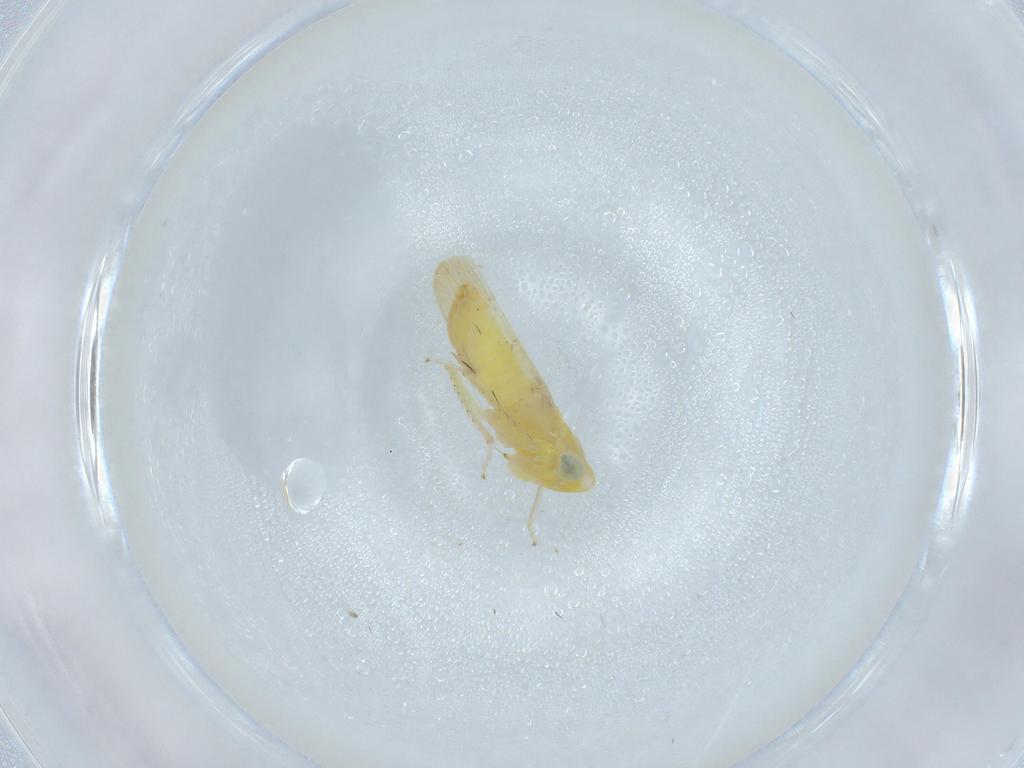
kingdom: Animalia
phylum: Arthropoda
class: Insecta
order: Hemiptera
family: Cicadellidae
